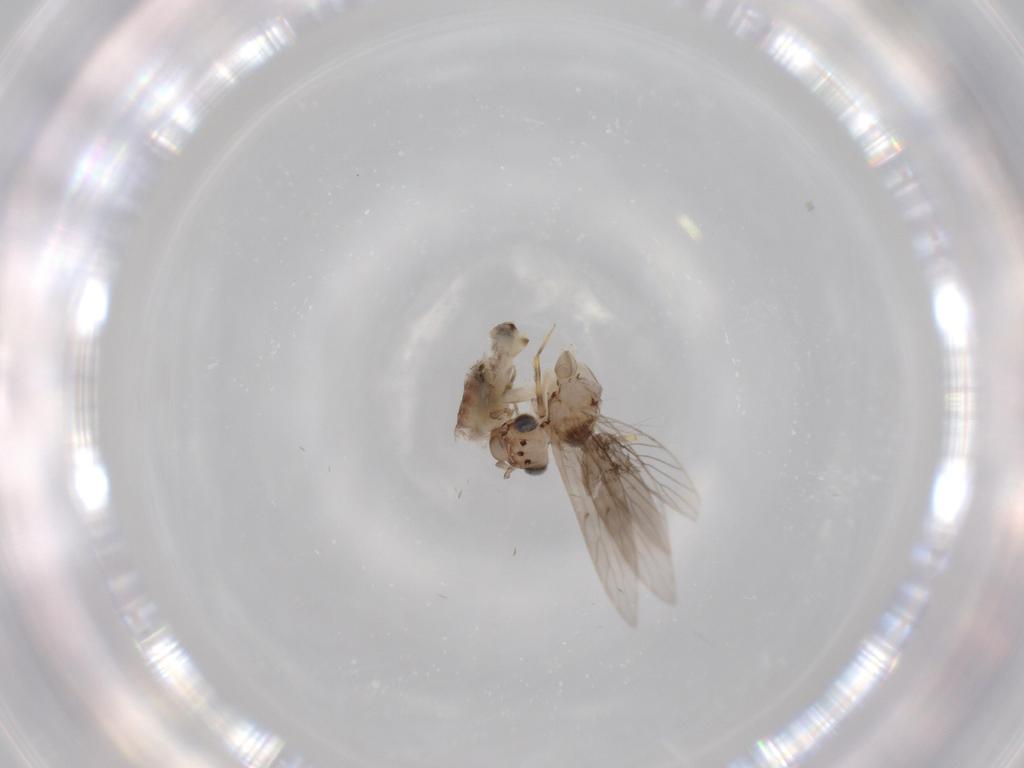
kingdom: Animalia
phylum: Arthropoda
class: Insecta
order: Psocodea
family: Lepidopsocidae
